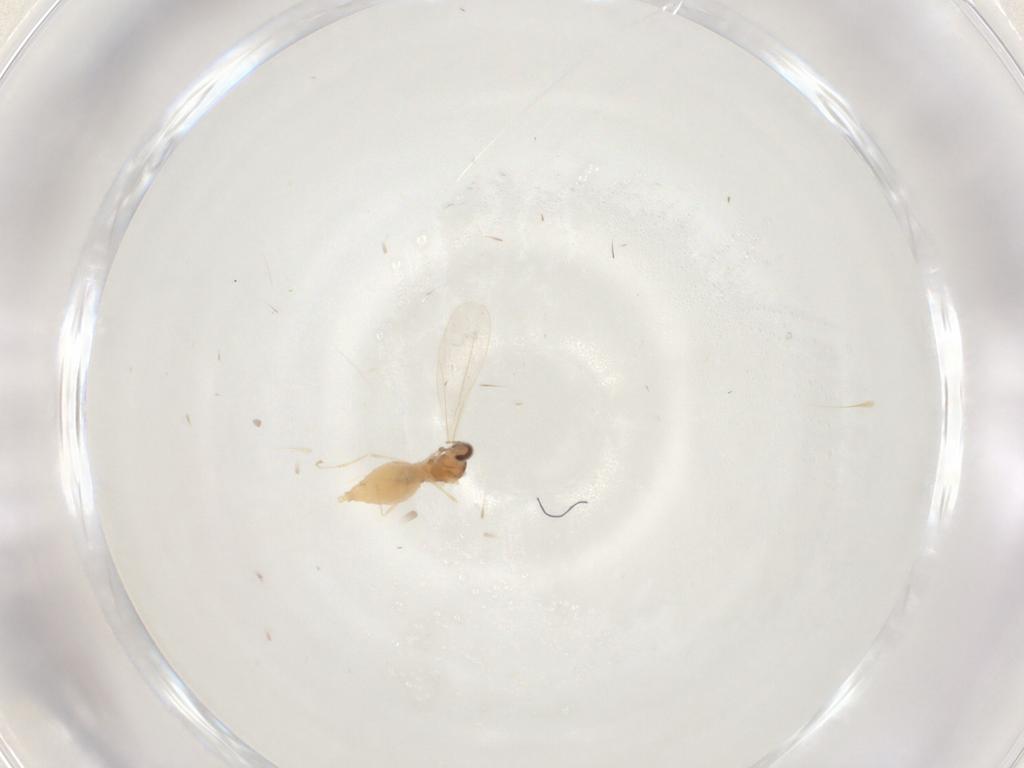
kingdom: Animalia
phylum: Arthropoda
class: Insecta
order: Diptera
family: Cecidomyiidae
